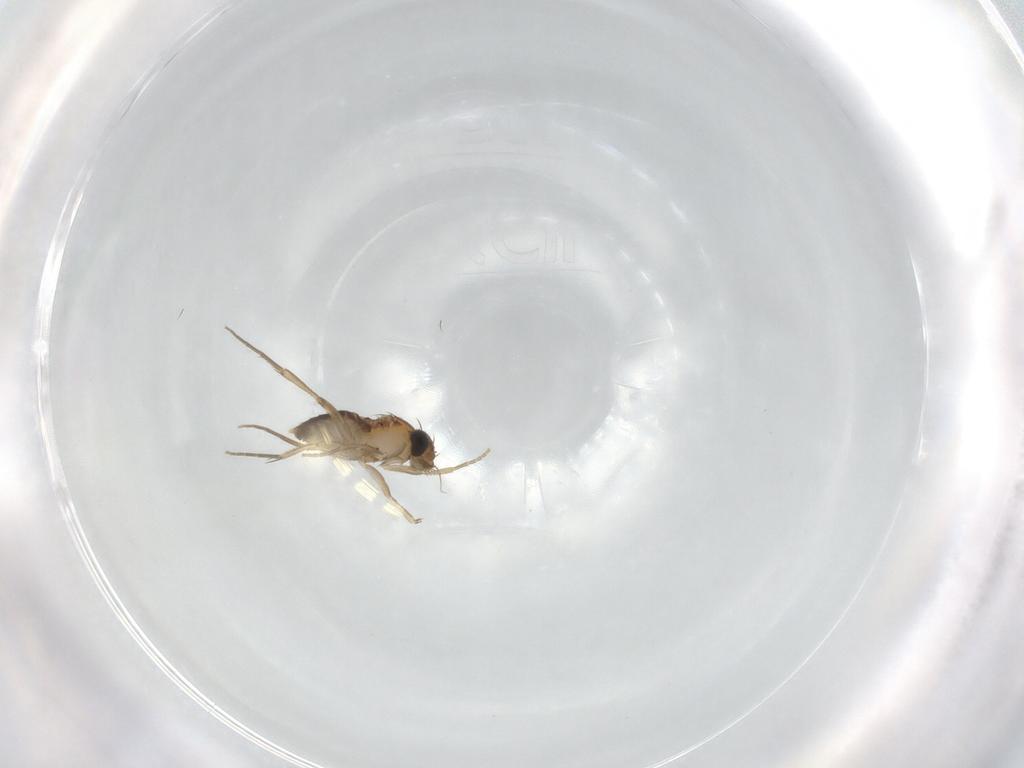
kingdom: Animalia
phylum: Arthropoda
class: Insecta
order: Diptera
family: Phoridae
